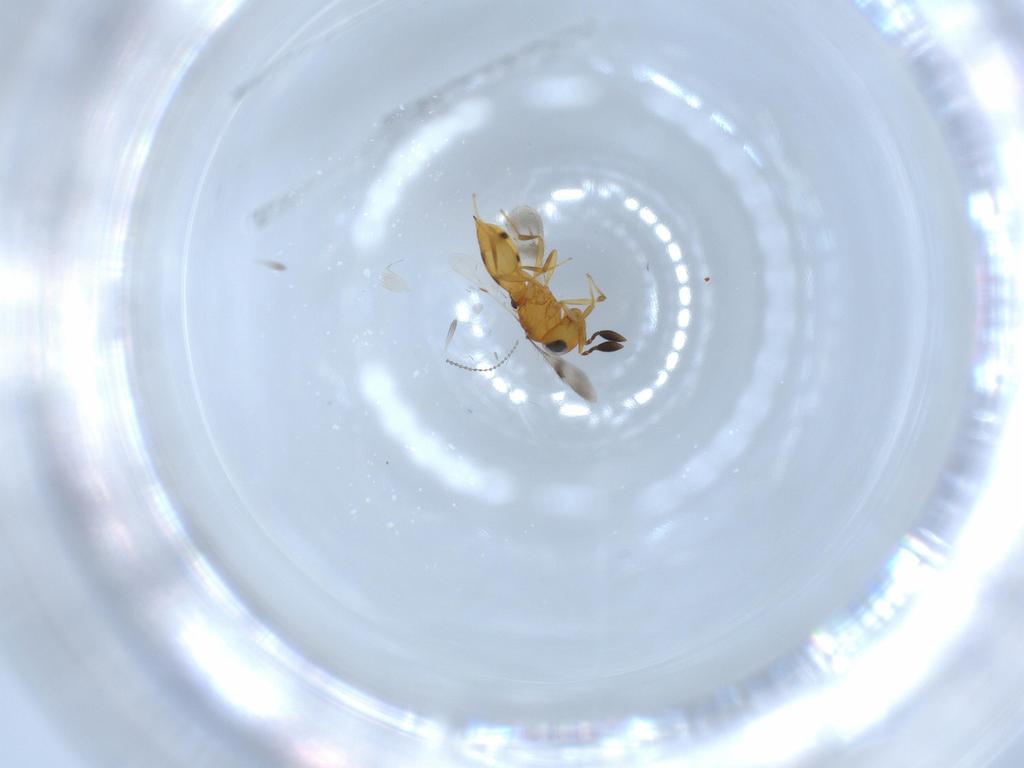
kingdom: Animalia
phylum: Arthropoda
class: Insecta
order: Hymenoptera
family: Scelionidae
